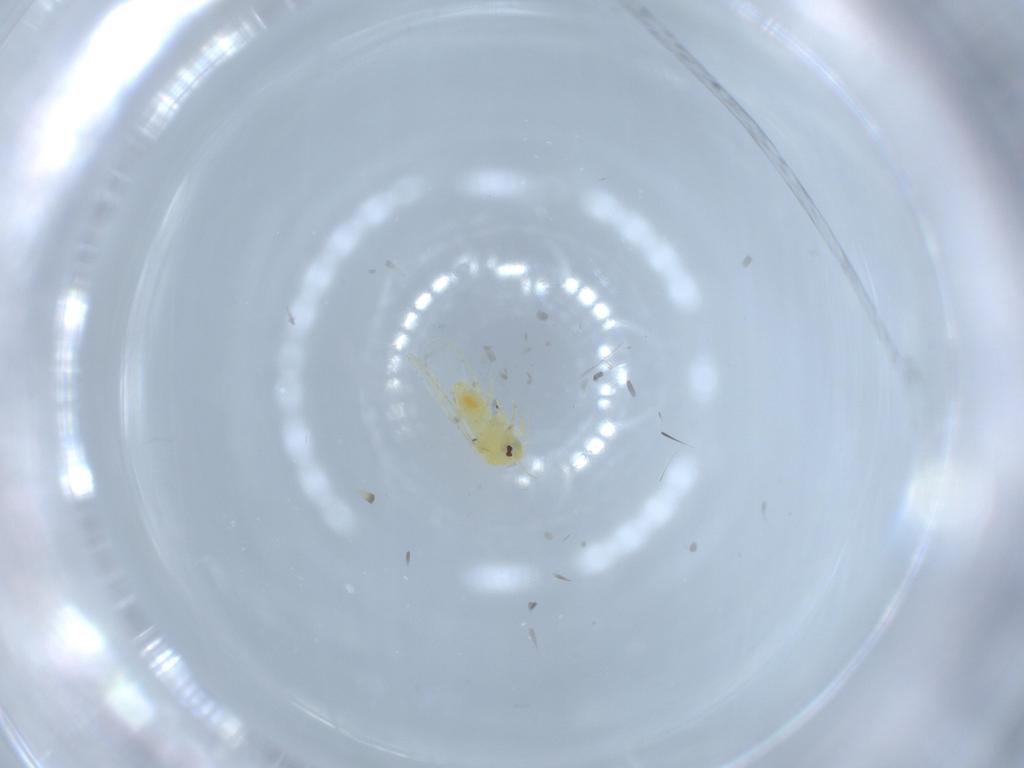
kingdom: Animalia
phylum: Arthropoda
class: Insecta
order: Hemiptera
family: Aleyrodidae
